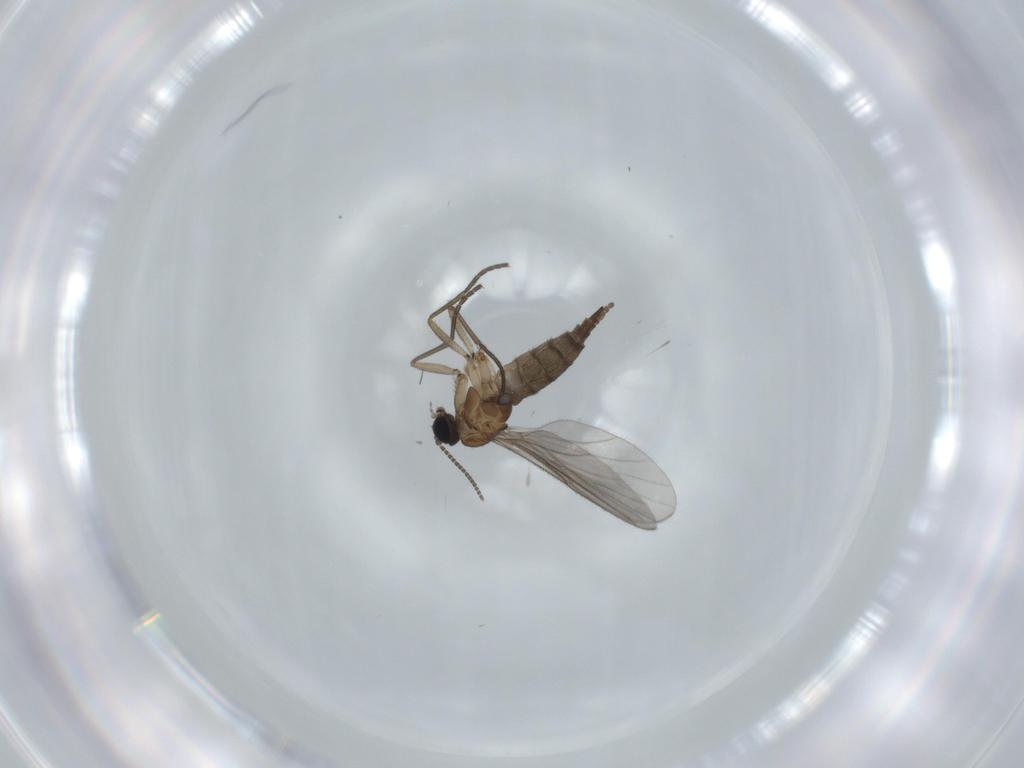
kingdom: Animalia
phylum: Arthropoda
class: Insecta
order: Diptera
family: Sciaridae
